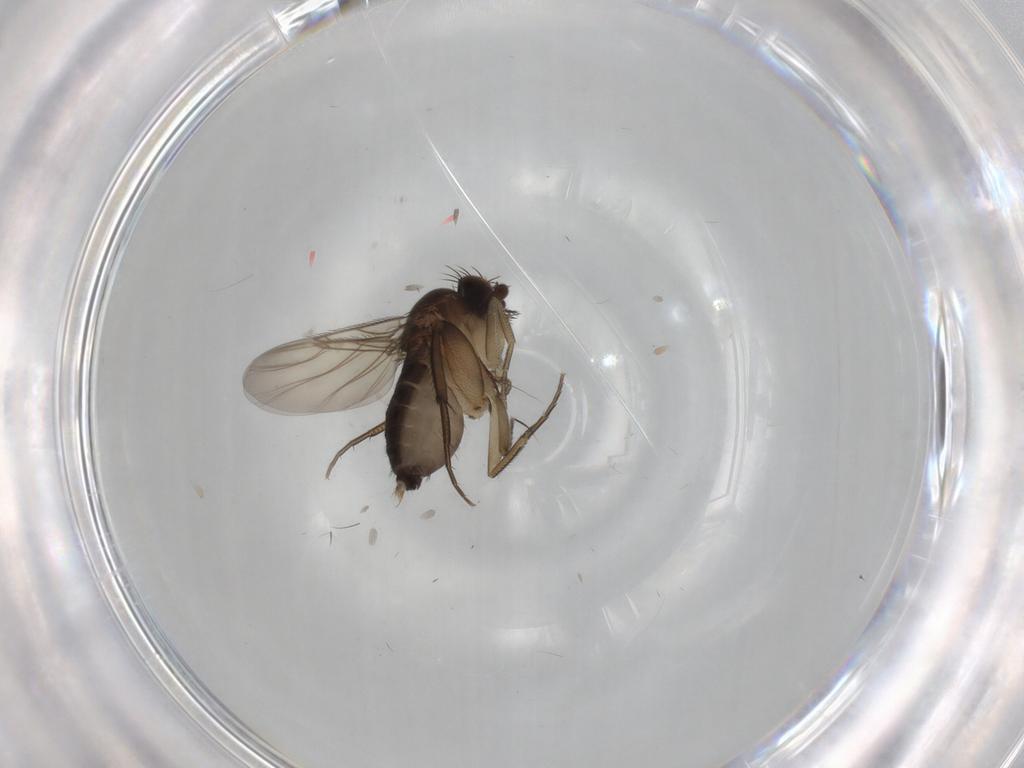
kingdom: Animalia
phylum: Arthropoda
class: Insecta
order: Diptera
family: Phoridae
